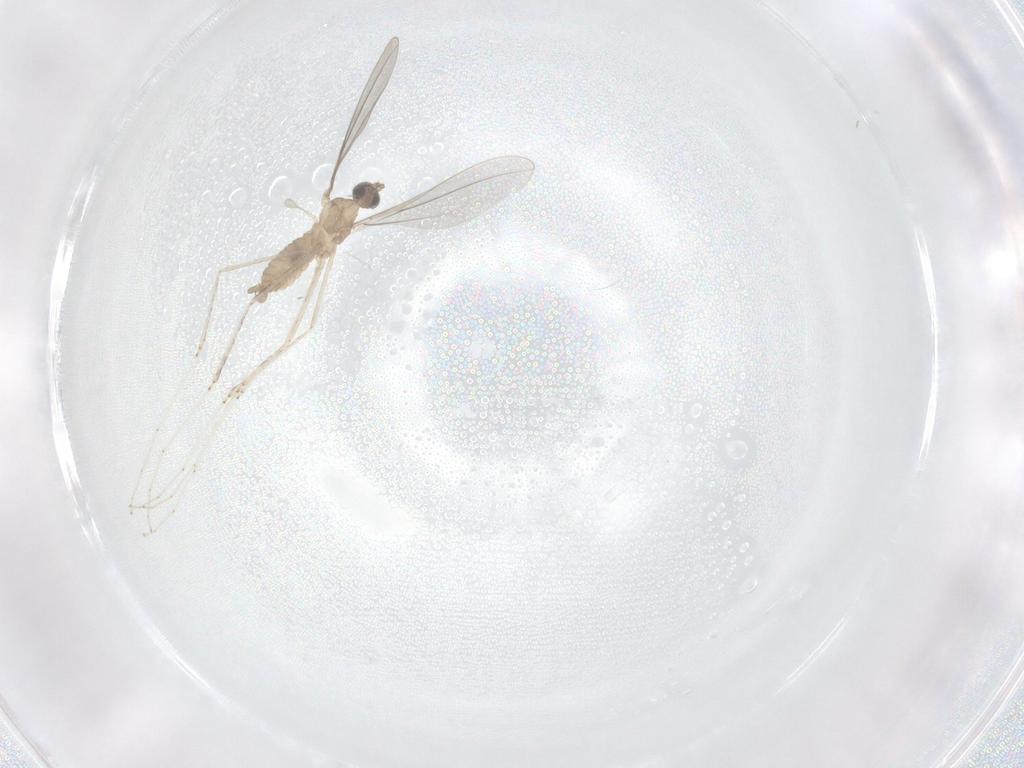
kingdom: Animalia
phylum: Arthropoda
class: Insecta
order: Diptera
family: Cecidomyiidae
